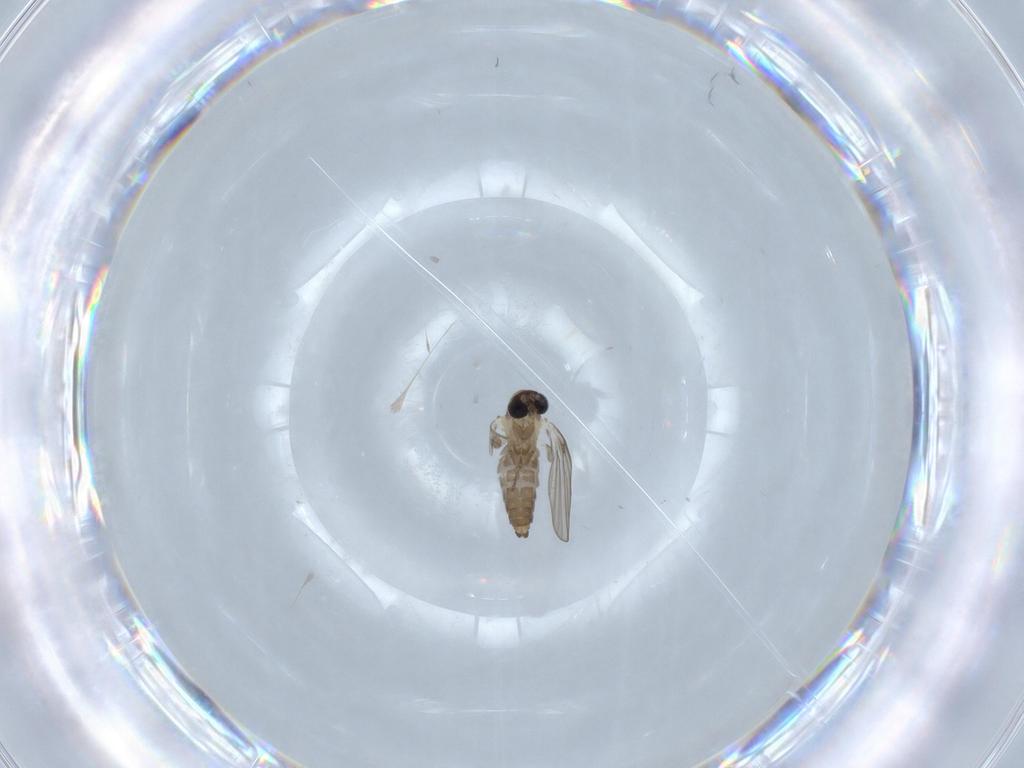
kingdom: Animalia
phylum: Arthropoda
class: Insecta
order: Diptera
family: Psychodidae
